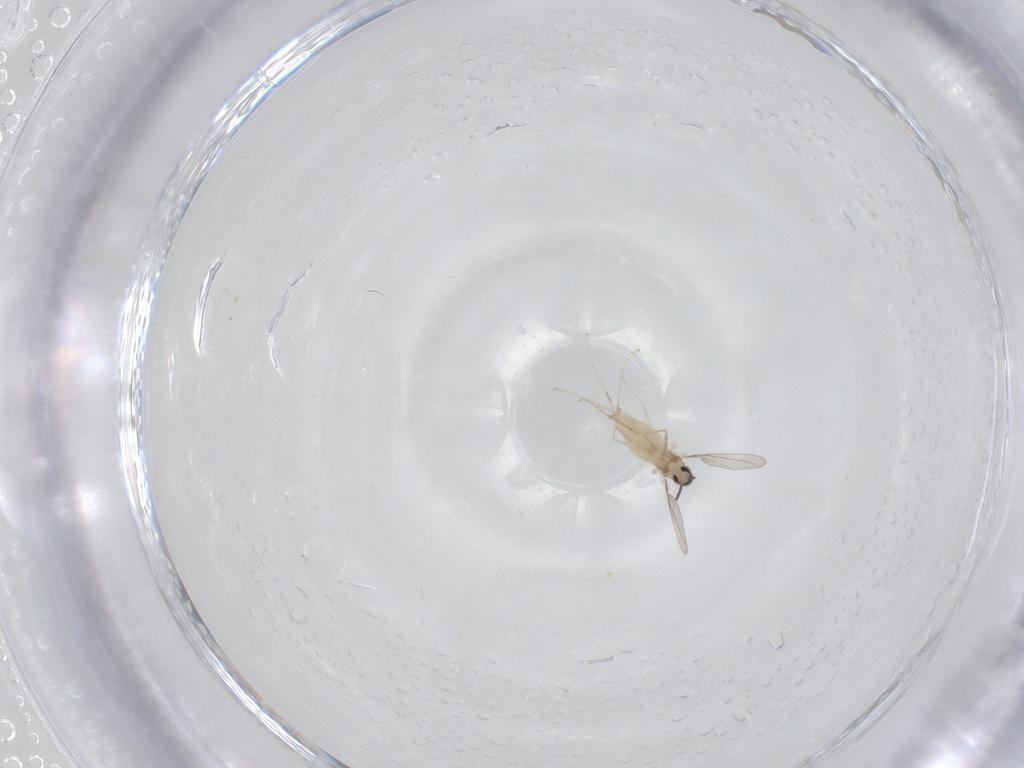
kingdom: Animalia
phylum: Arthropoda
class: Insecta
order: Diptera
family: Cecidomyiidae
